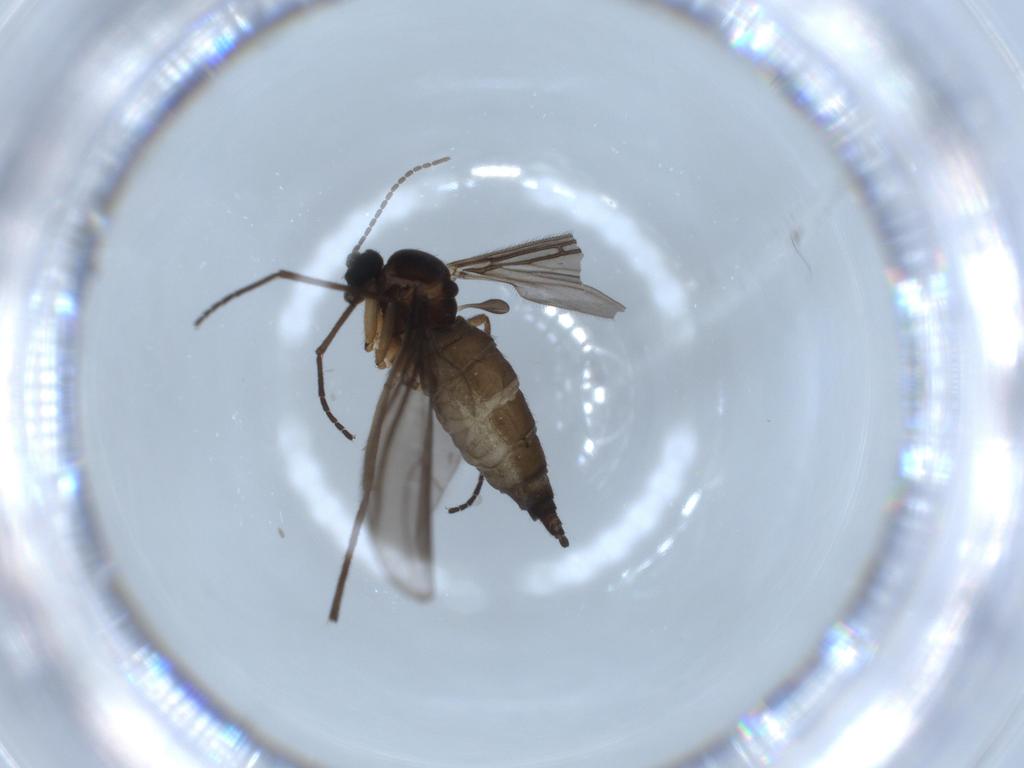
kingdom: Animalia
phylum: Arthropoda
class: Insecta
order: Diptera
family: Sciaridae
